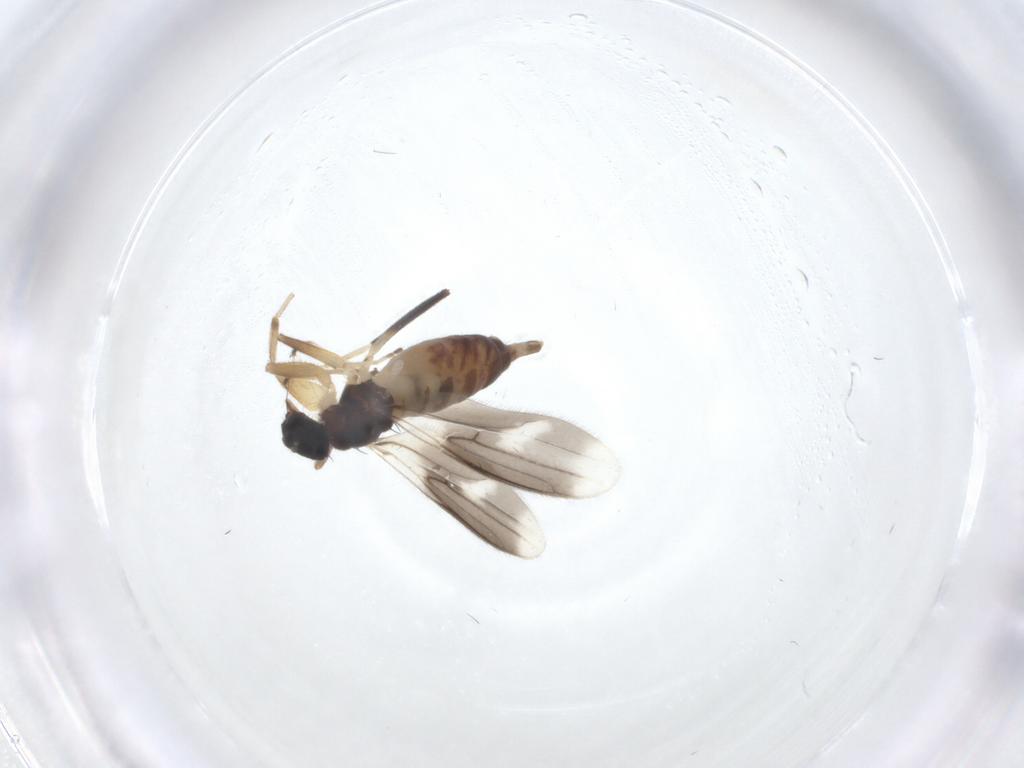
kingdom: Animalia
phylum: Arthropoda
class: Insecta
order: Diptera
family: Hybotidae
